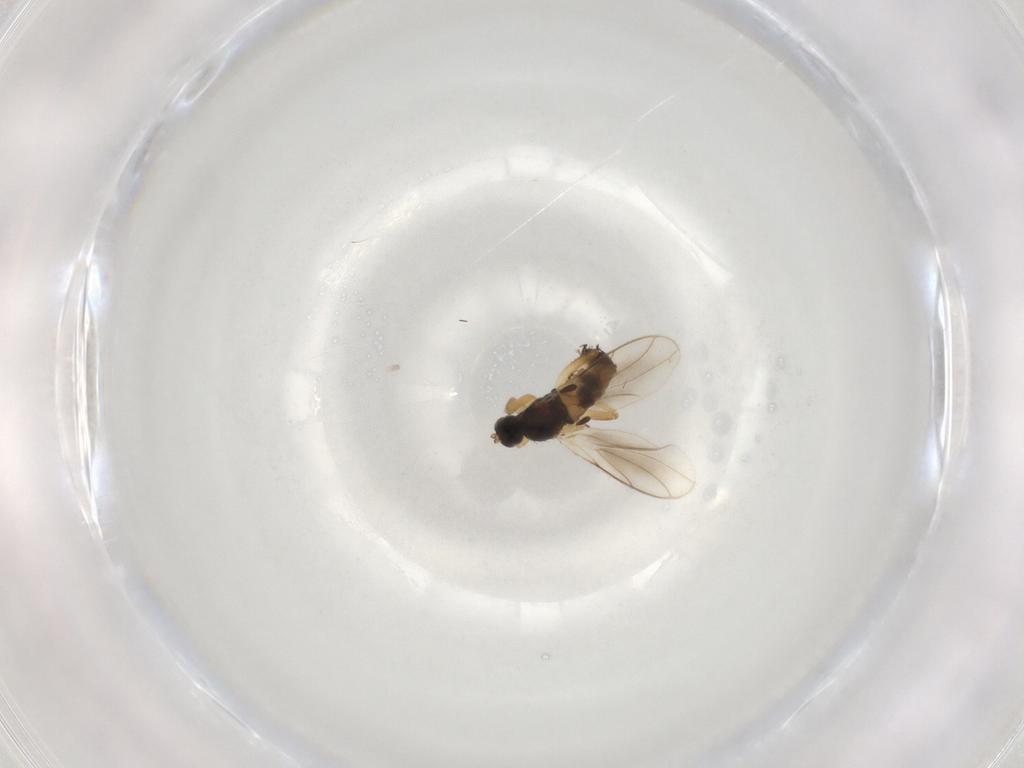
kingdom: Animalia
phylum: Arthropoda
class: Insecta
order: Diptera
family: Hybotidae
